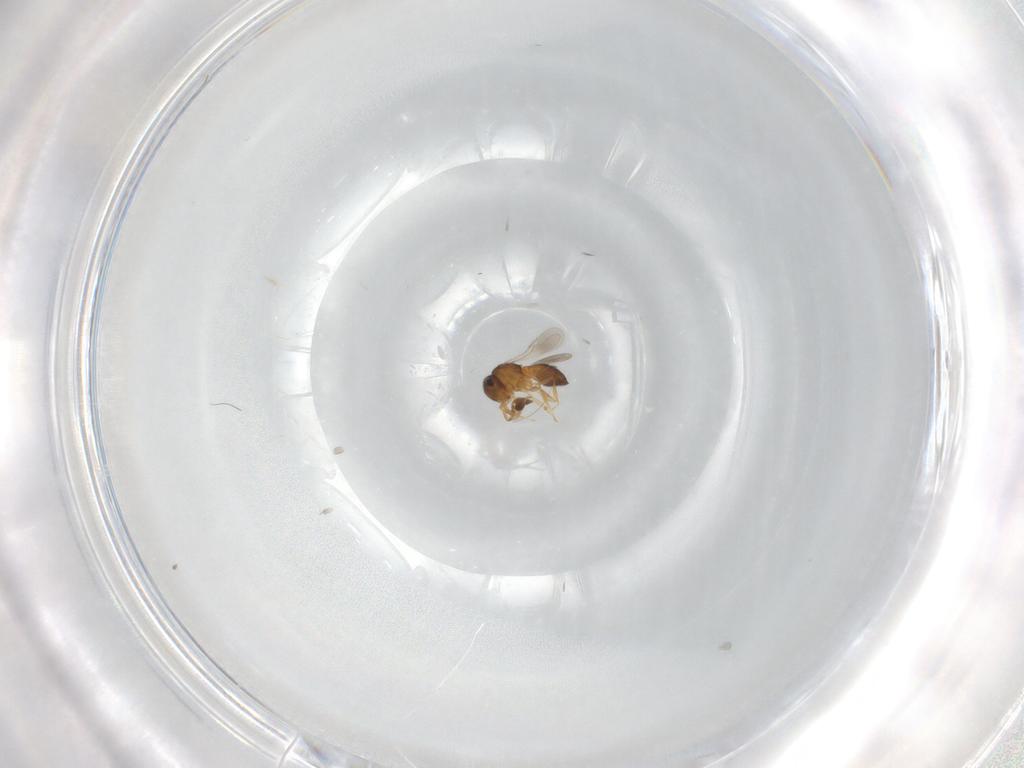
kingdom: Animalia
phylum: Arthropoda
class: Insecta
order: Hymenoptera
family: Scelionidae
